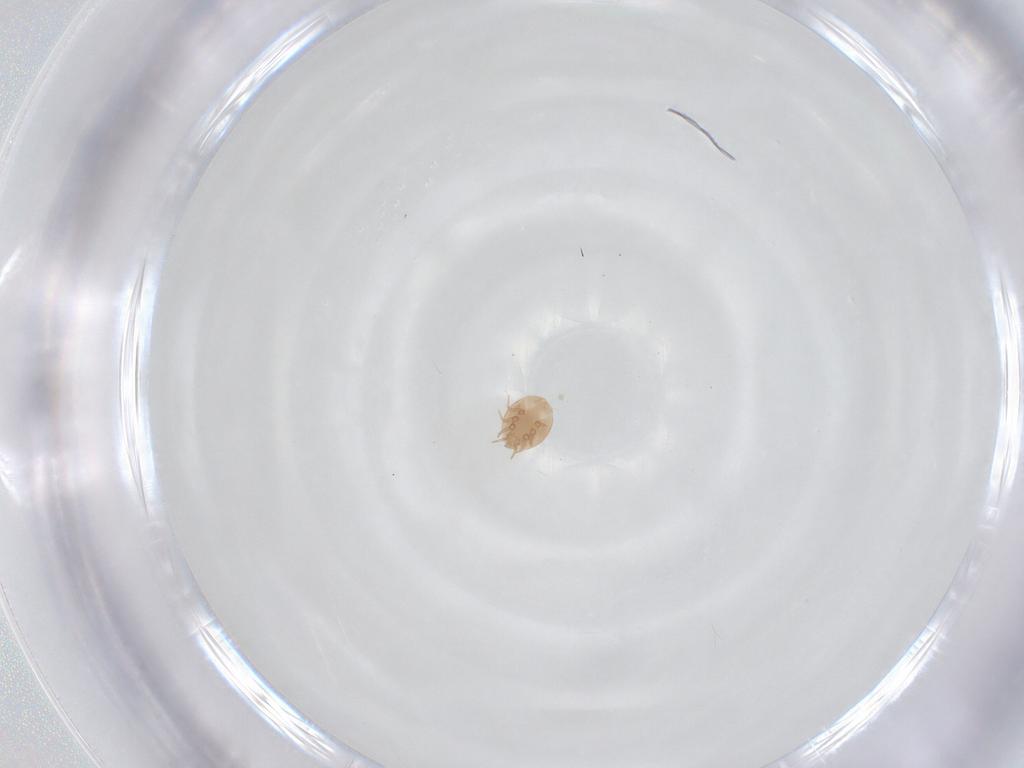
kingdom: Animalia
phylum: Arthropoda
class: Arachnida
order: Mesostigmata
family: Trematuridae
